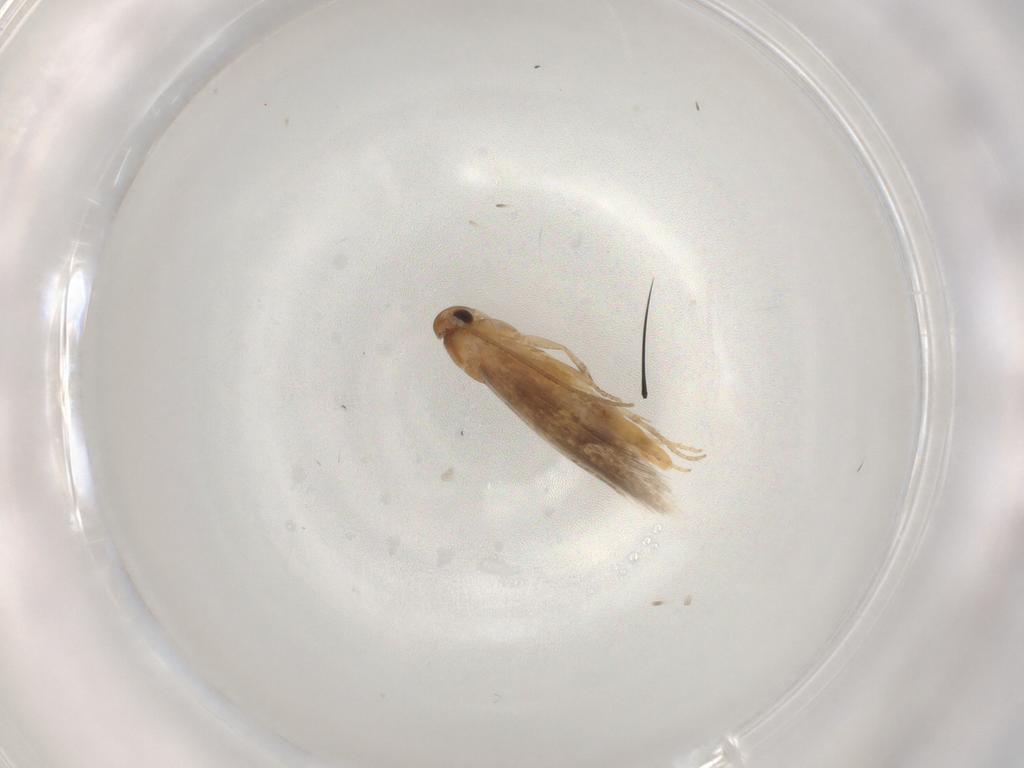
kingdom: Animalia
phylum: Arthropoda
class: Insecta
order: Lepidoptera
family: Elachistidae
